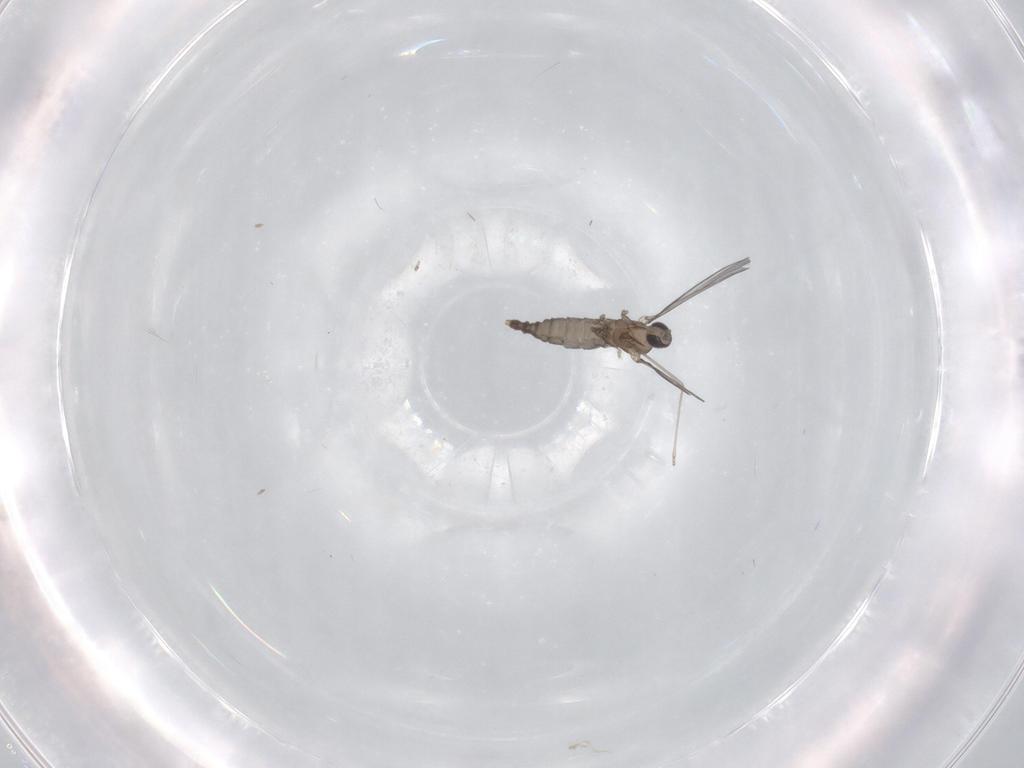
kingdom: Animalia
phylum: Arthropoda
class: Insecta
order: Diptera
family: Cecidomyiidae
